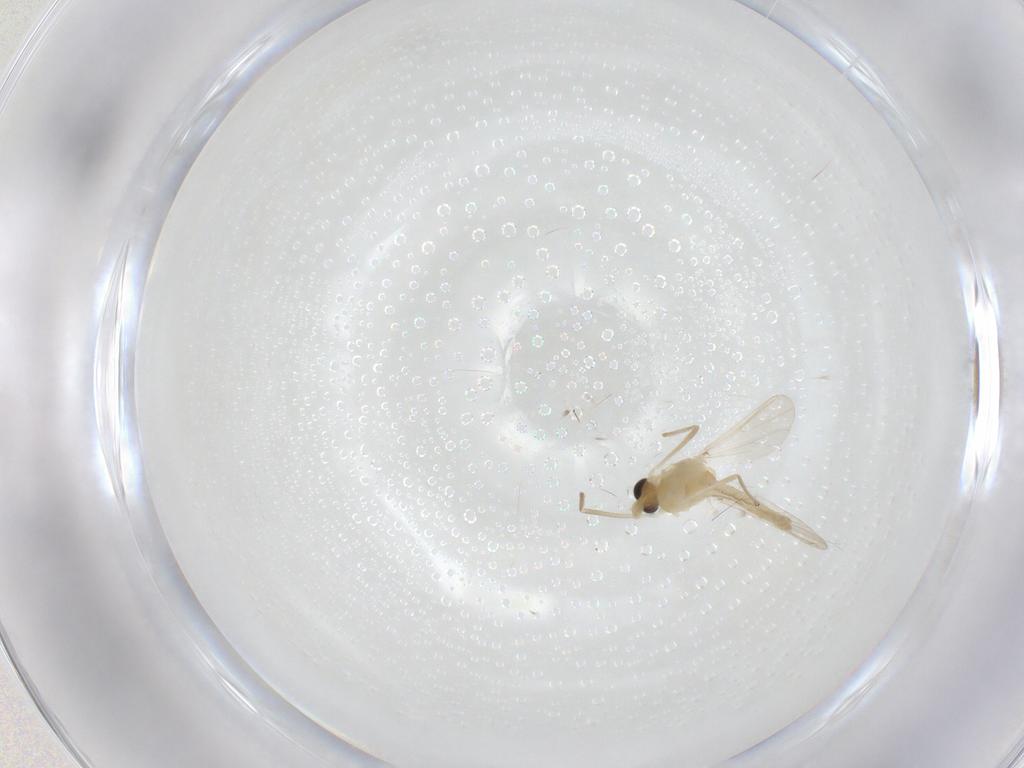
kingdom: Animalia
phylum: Arthropoda
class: Insecta
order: Diptera
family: Chironomidae
